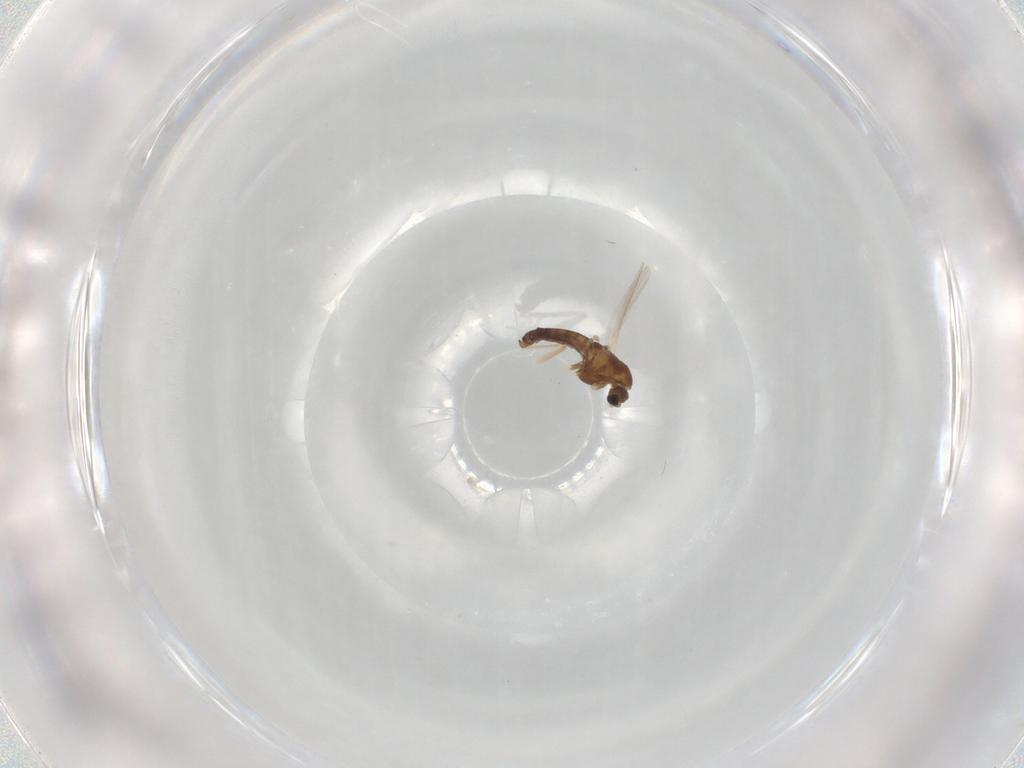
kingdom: Animalia
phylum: Arthropoda
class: Insecta
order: Diptera
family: Chironomidae
